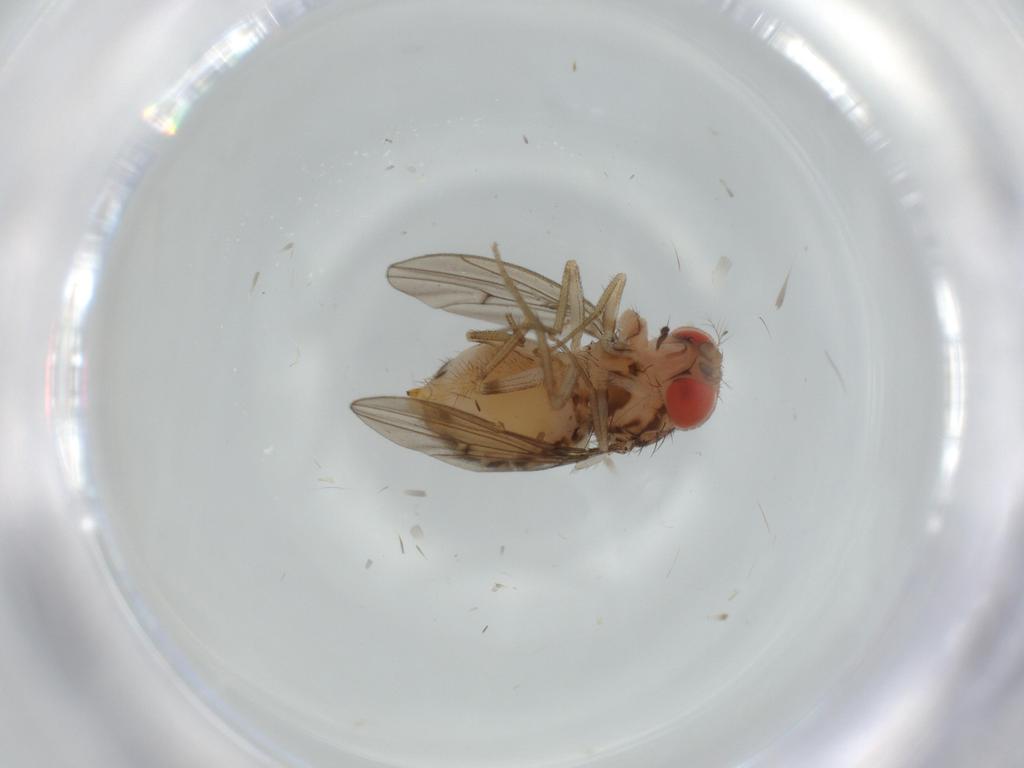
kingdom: Animalia
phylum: Arthropoda
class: Insecta
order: Diptera
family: Drosophilidae
